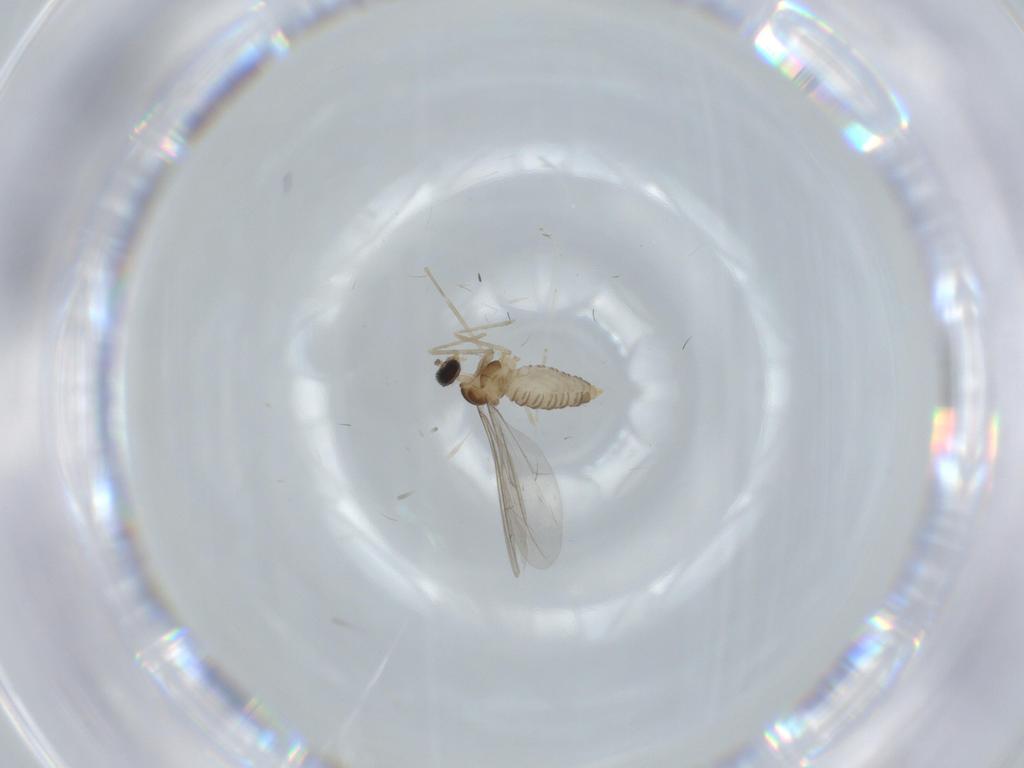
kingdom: Animalia
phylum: Arthropoda
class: Insecta
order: Diptera
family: Cecidomyiidae
